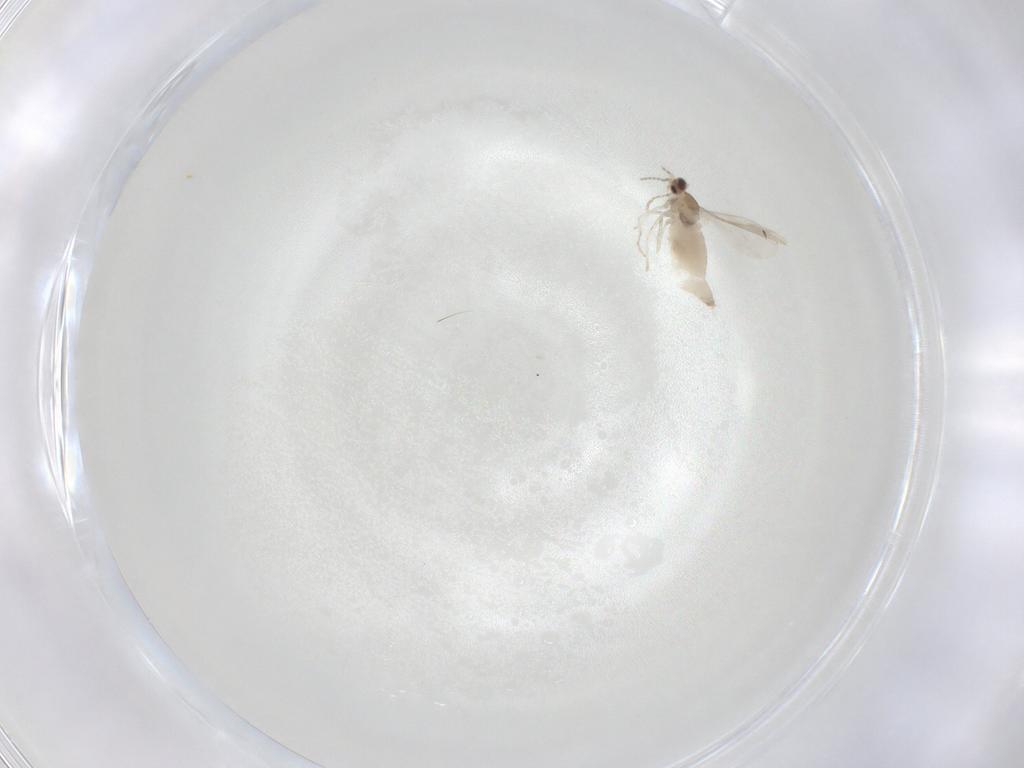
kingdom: Animalia
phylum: Arthropoda
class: Insecta
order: Diptera
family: Cecidomyiidae
